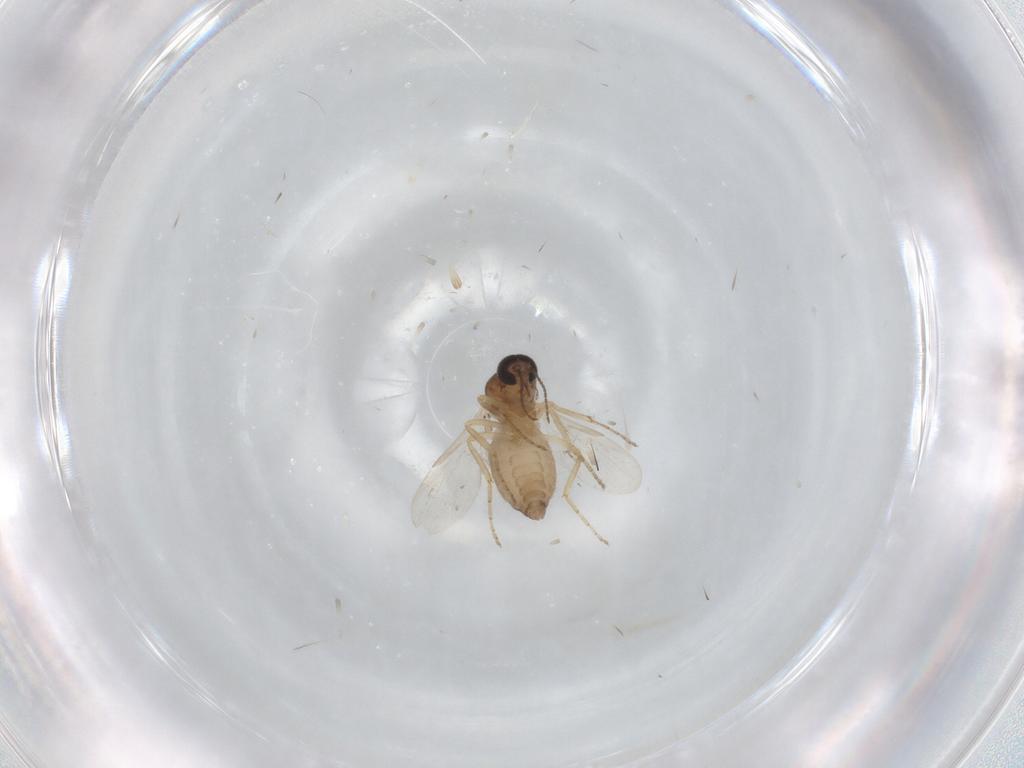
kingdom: Animalia
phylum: Arthropoda
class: Insecta
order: Diptera
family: Ceratopogonidae
